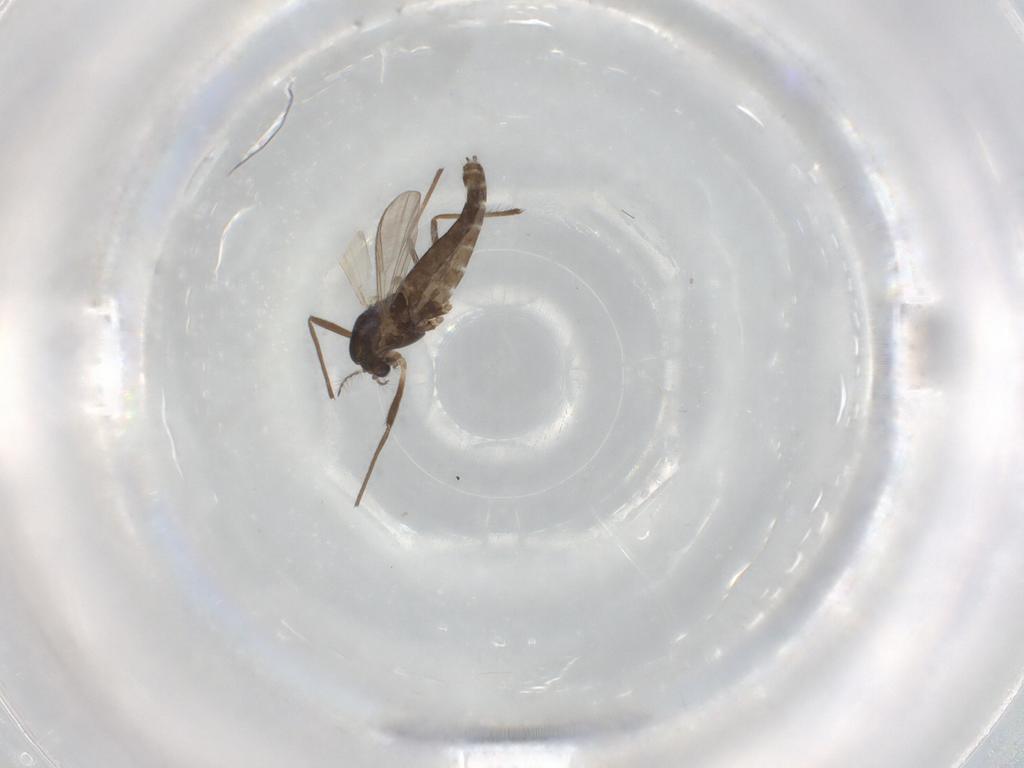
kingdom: Animalia
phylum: Arthropoda
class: Insecta
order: Diptera
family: Chironomidae
